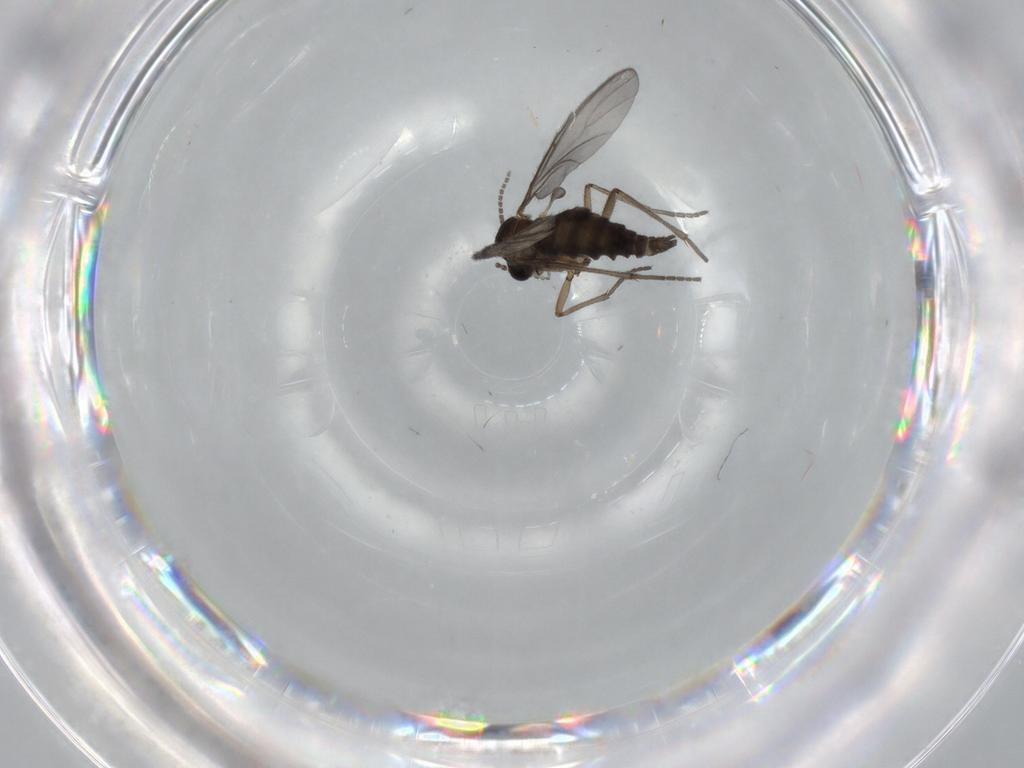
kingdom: Animalia
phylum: Arthropoda
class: Insecta
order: Diptera
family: Sciaridae
